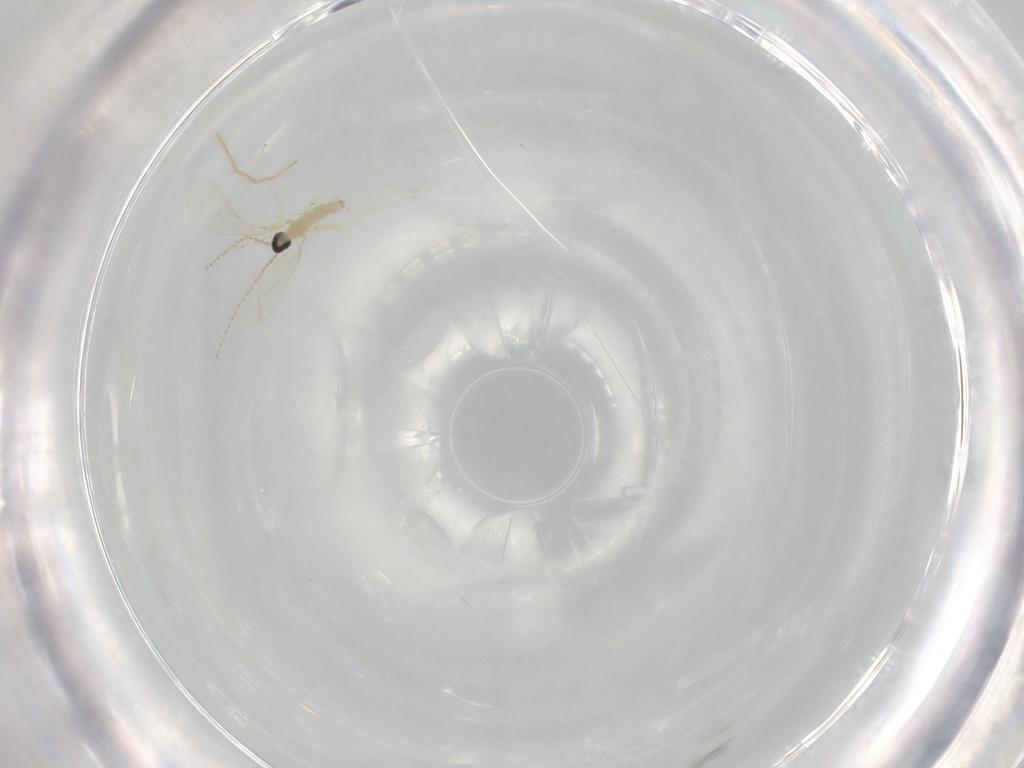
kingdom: Animalia
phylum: Arthropoda
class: Insecta
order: Diptera
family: Cecidomyiidae
